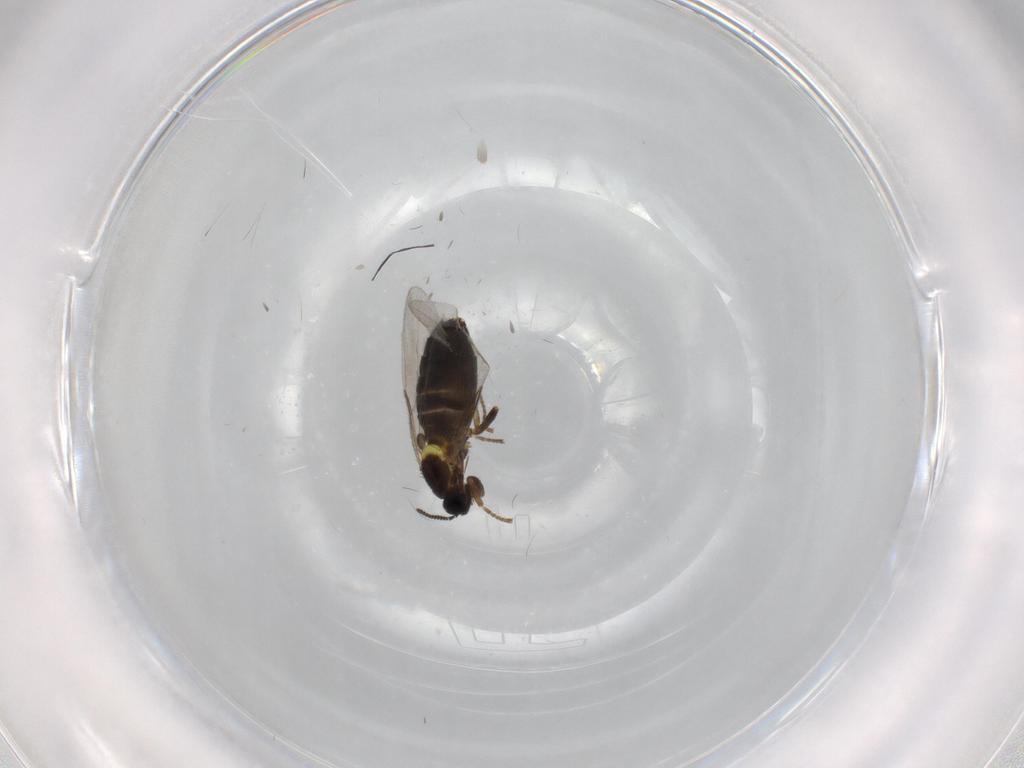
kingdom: Animalia
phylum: Arthropoda
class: Insecta
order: Diptera
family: Scatopsidae
